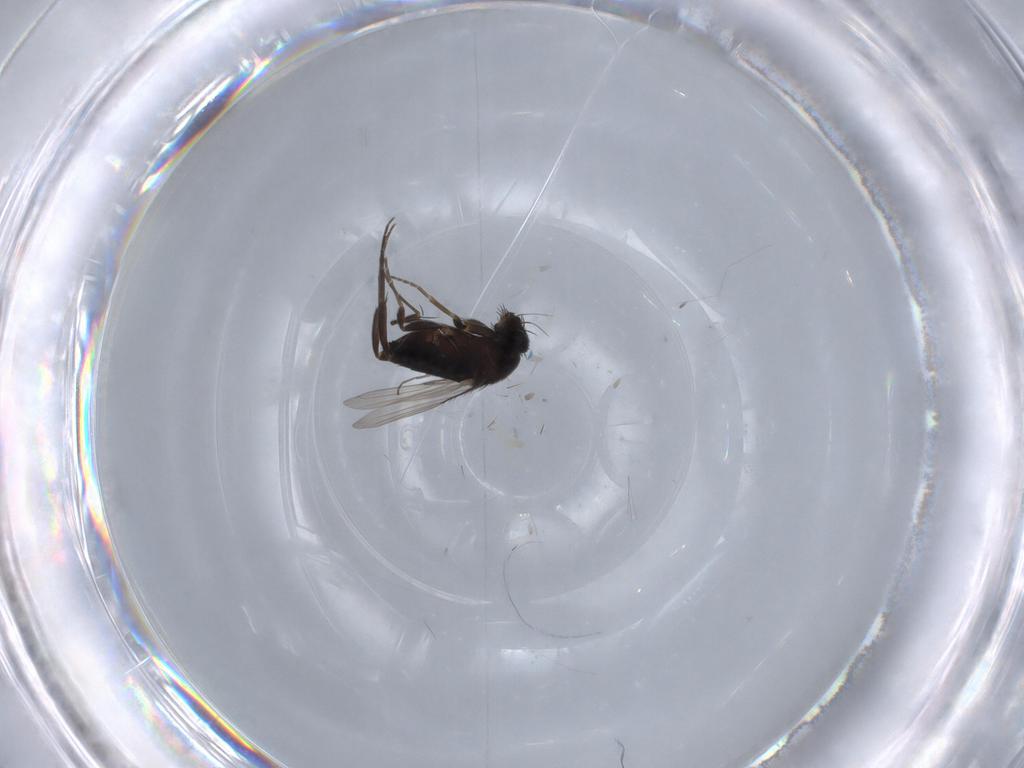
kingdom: Animalia
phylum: Arthropoda
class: Insecta
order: Diptera
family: Phoridae
